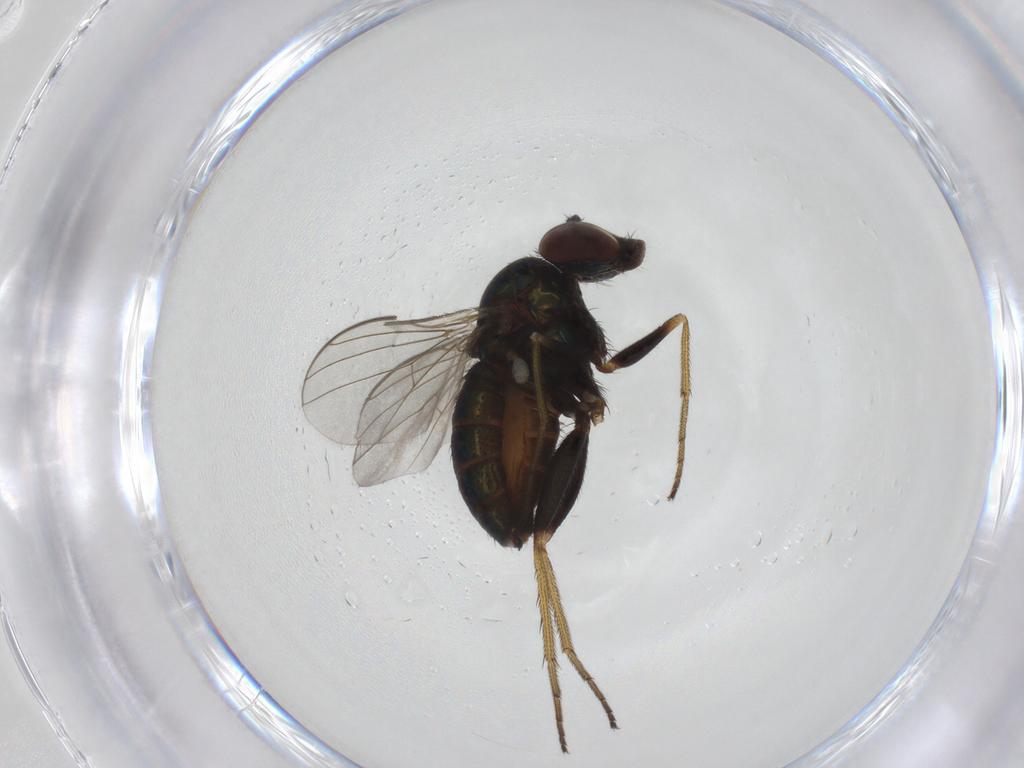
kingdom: Animalia
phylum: Arthropoda
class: Insecta
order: Diptera
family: Dolichopodidae
